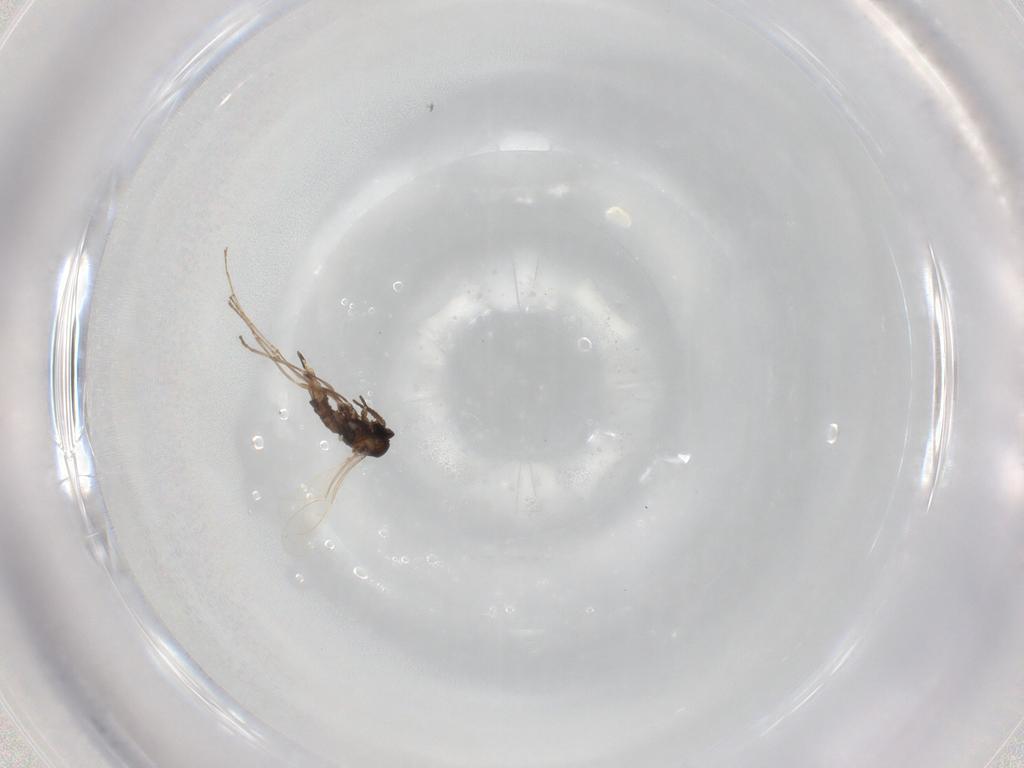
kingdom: Animalia
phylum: Arthropoda
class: Insecta
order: Diptera
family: Cecidomyiidae
